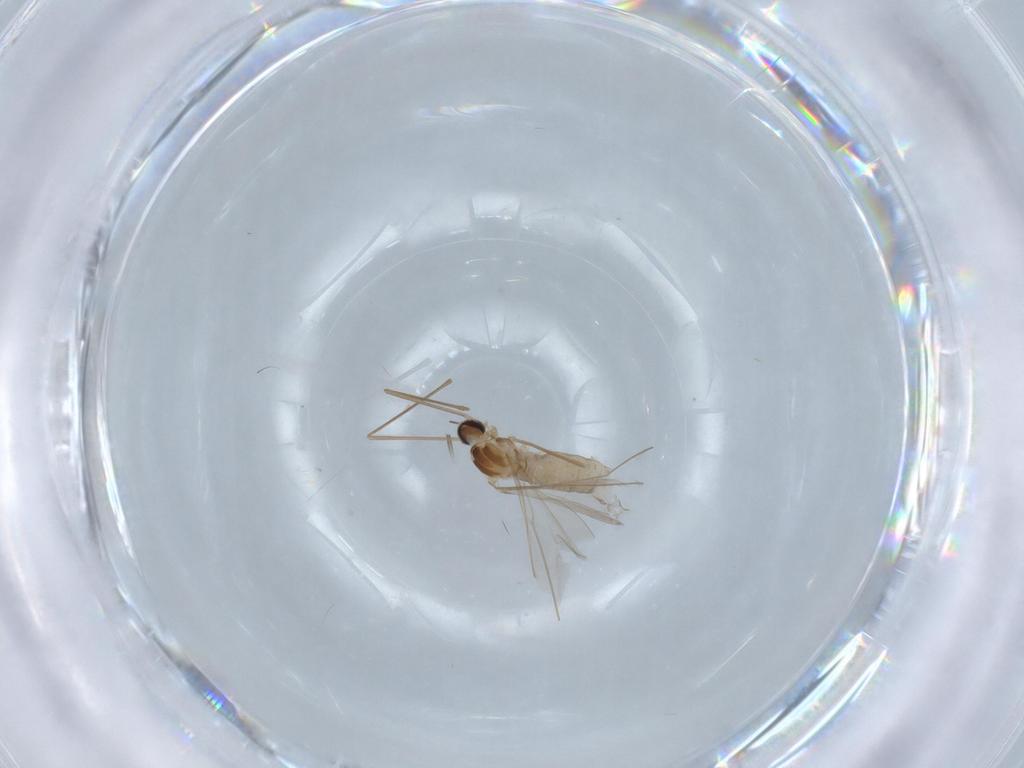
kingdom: Animalia
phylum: Arthropoda
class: Insecta
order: Diptera
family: Cecidomyiidae
